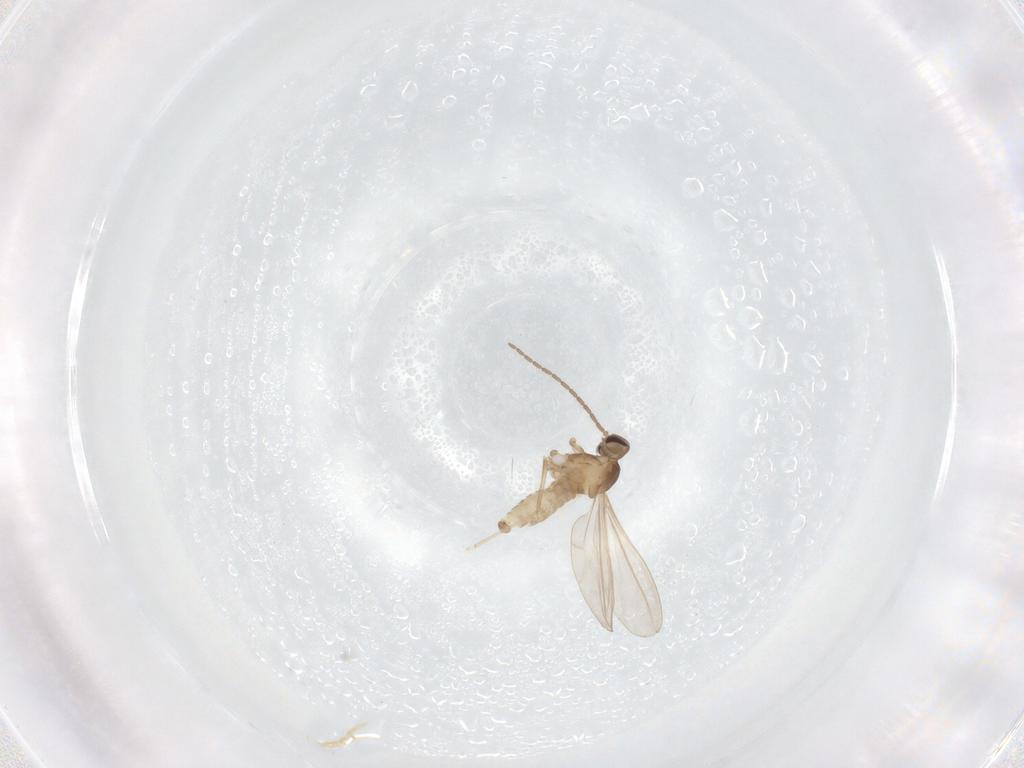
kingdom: Animalia
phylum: Arthropoda
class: Insecta
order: Diptera
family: Cecidomyiidae
